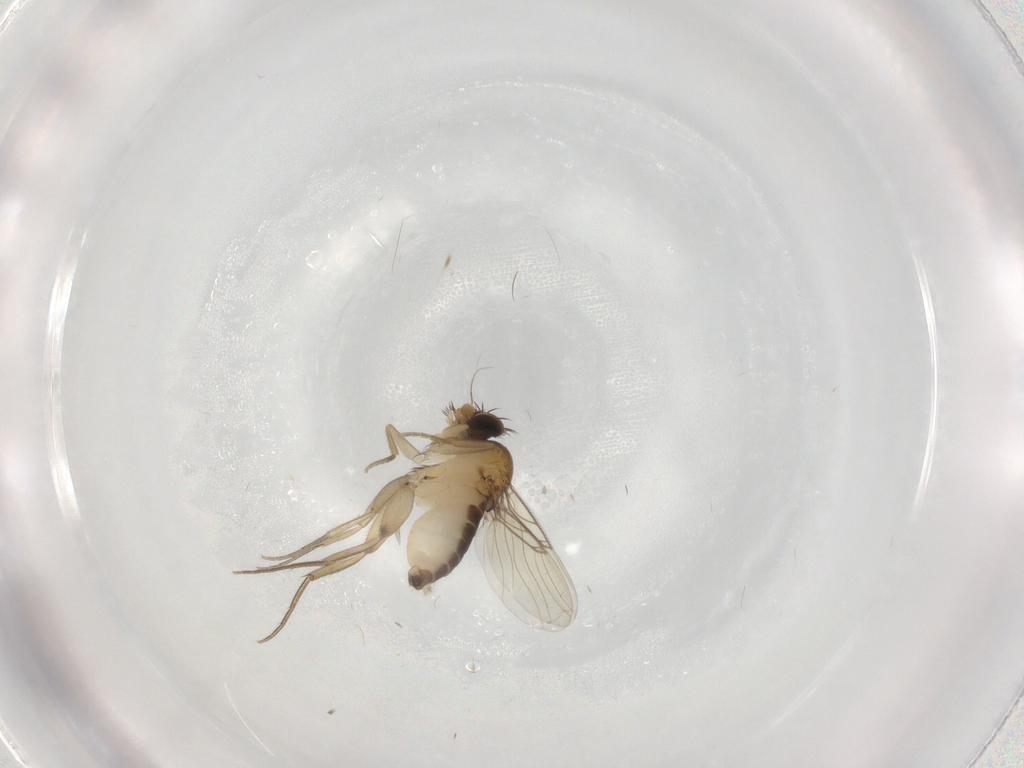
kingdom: Animalia
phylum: Arthropoda
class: Insecta
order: Diptera
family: Phoridae
